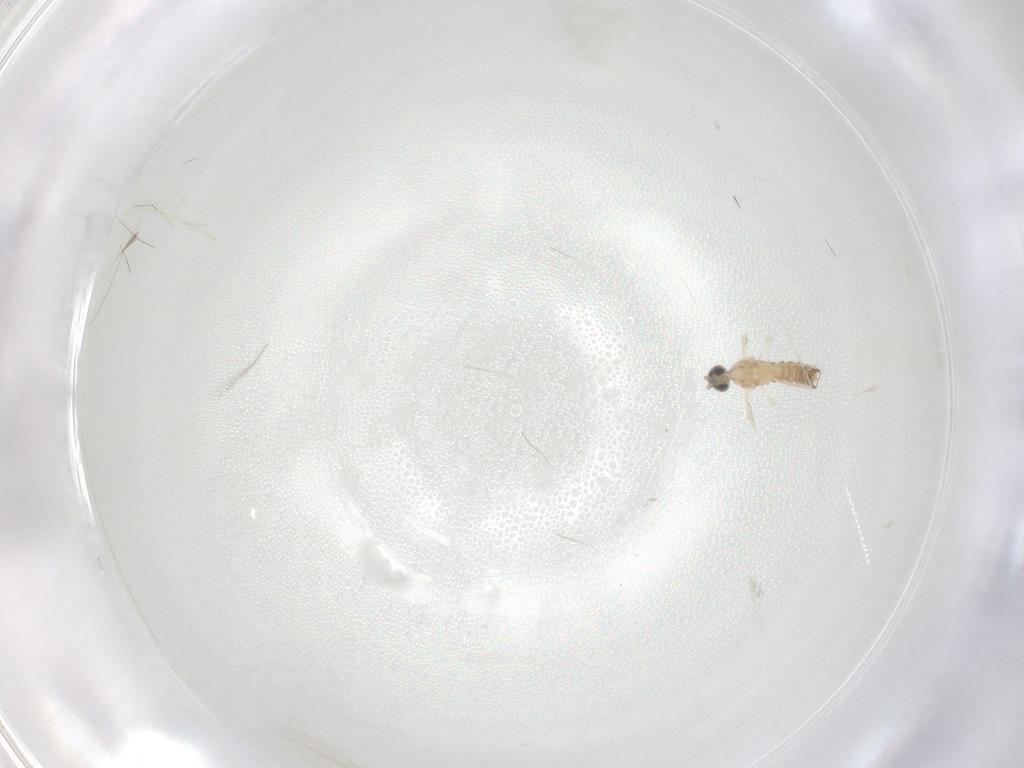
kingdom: Animalia
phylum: Arthropoda
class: Insecta
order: Diptera
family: Cecidomyiidae
